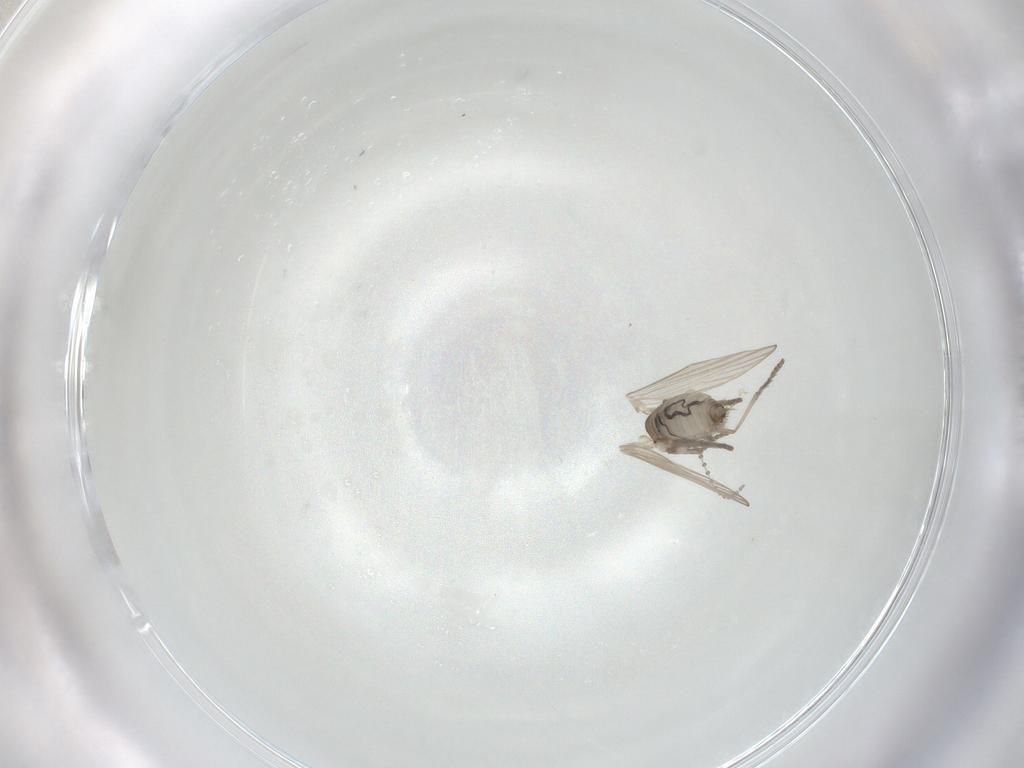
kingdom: Animalia
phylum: Arthropoda
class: Insecta
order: Diptera
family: Psychodidae
